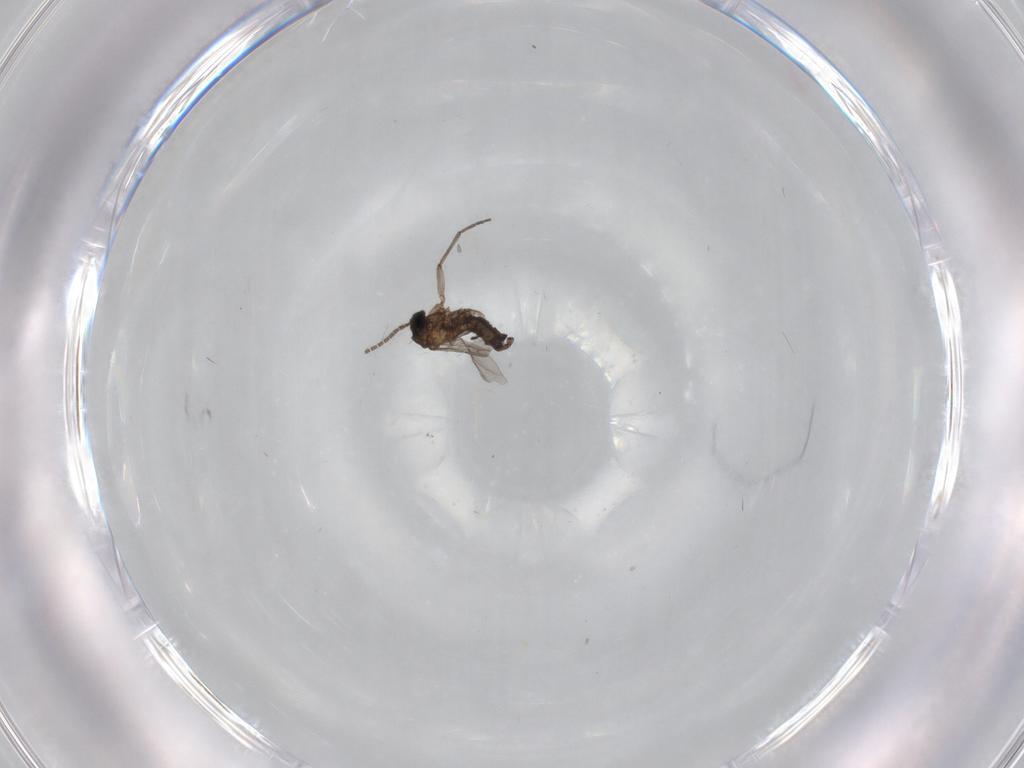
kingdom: Animalia
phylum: Arthropoda
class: Insecta
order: Diptera
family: Sciaridae
